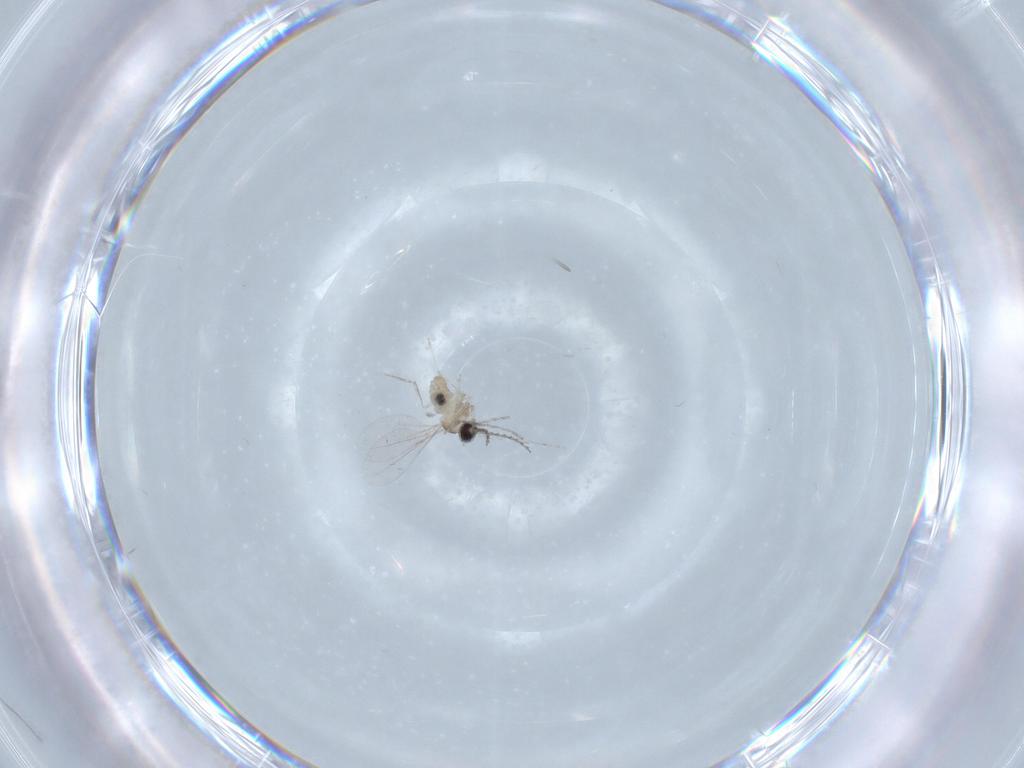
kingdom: Animalia
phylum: Arthropoda
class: Insecta
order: Diptera
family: Cecidomyiidae
